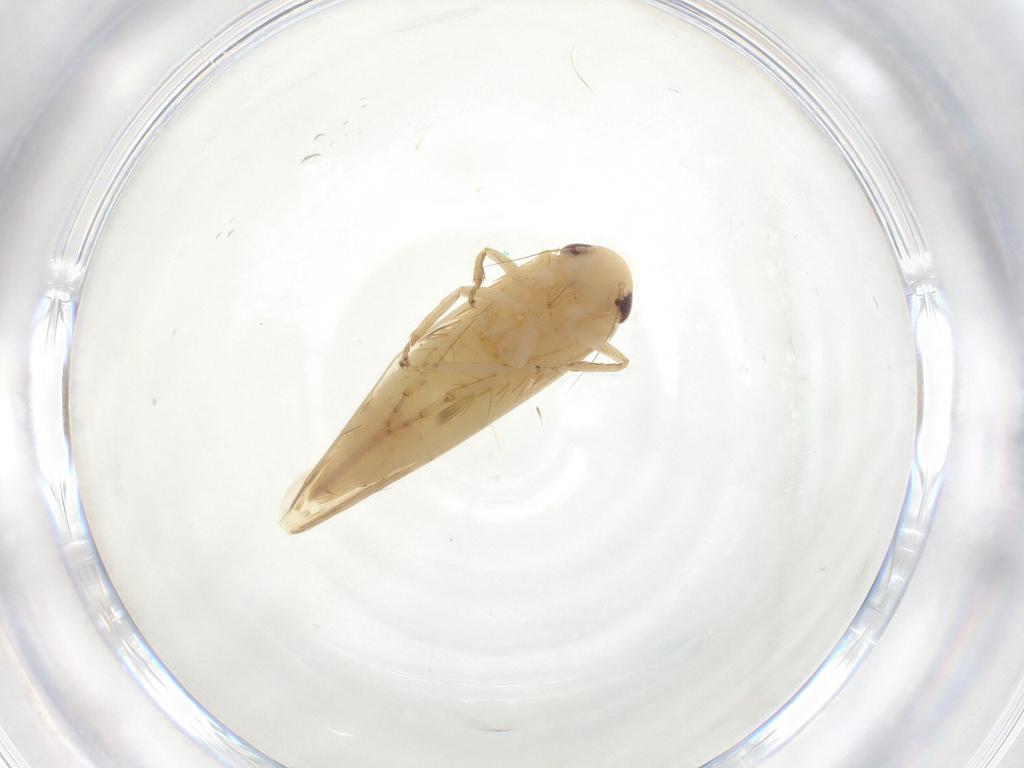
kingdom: Animalia
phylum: Arthropoda
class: Insecta
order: Hemiptera
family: Cicadellidae
